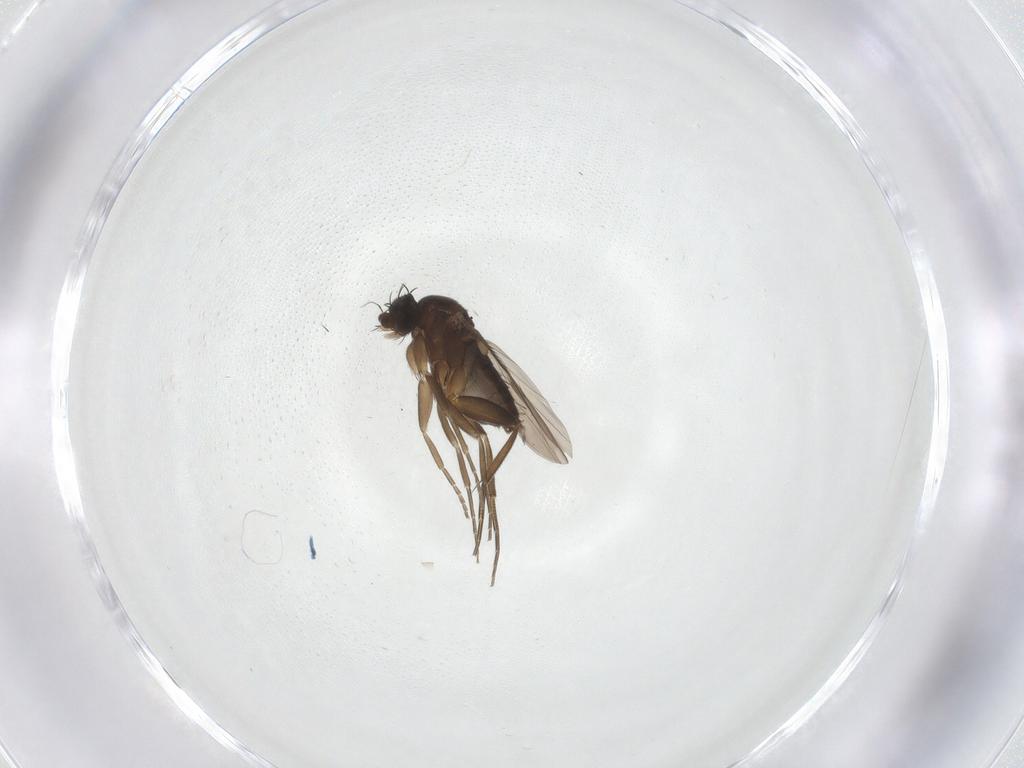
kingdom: Animalia
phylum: Arthropoda
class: Insecta
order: Diptera
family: Phoridae
